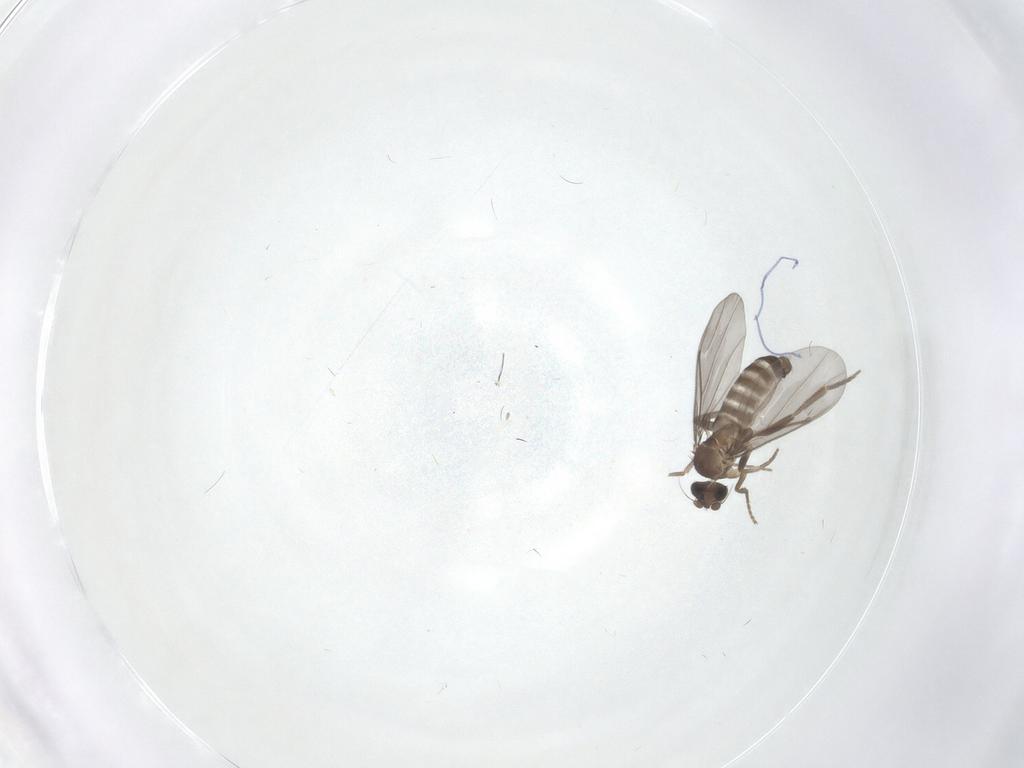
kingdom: Animalia
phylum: Arthropoda
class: Insecta
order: Diptera
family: Phoridae
